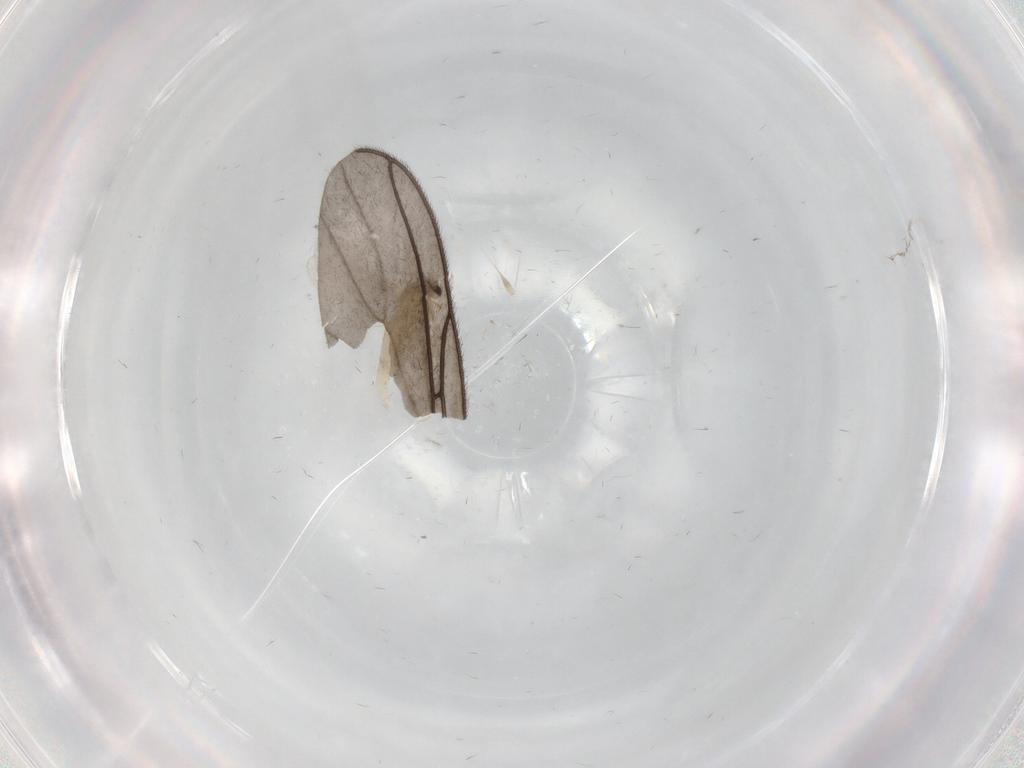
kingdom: Animalia
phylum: Arthropoda
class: Insecta
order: Diptera
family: Cecidomyiidae
